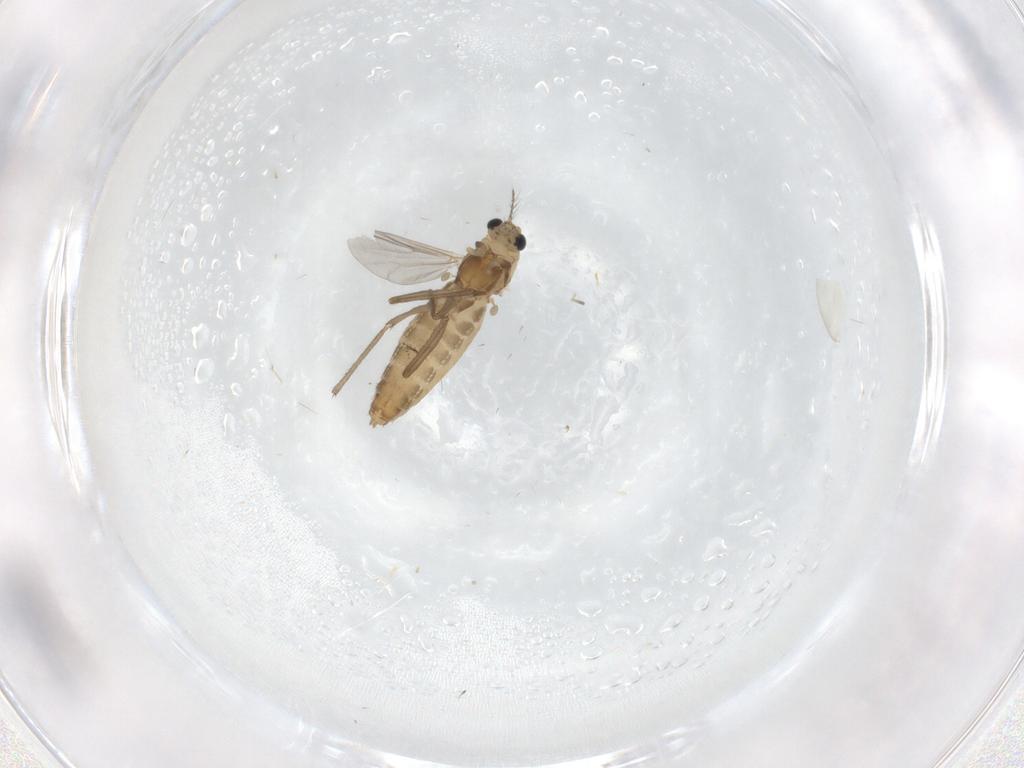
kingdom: Animalia
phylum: Arthropoda
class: Insecta
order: Diptera
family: Chironomidae
